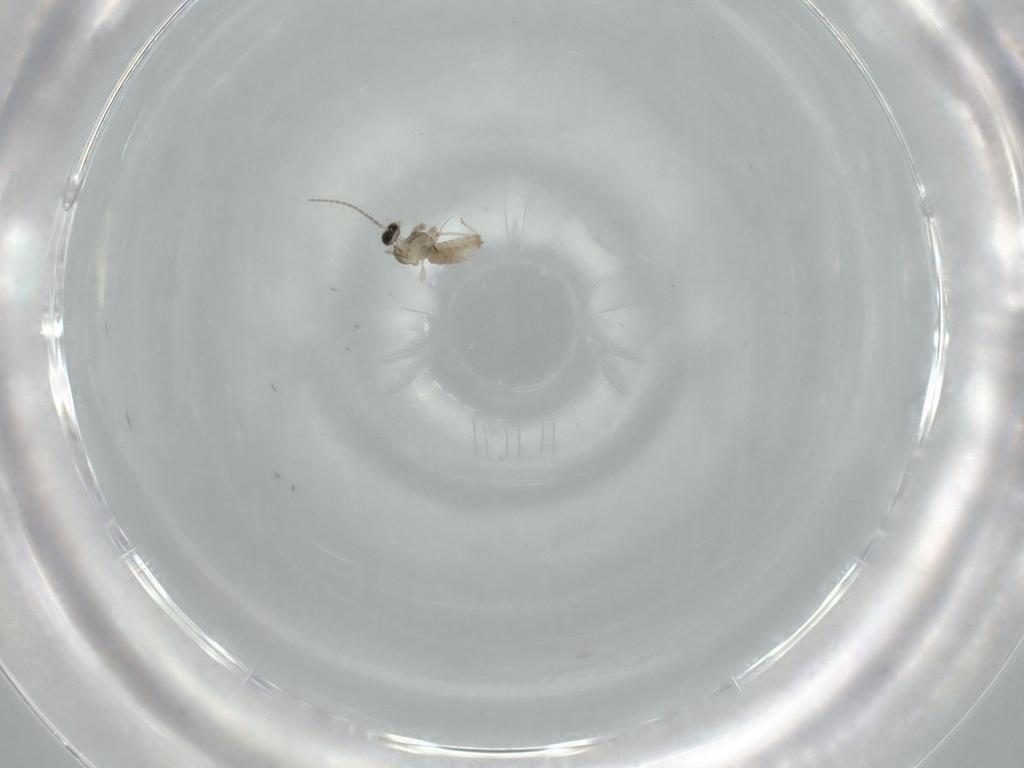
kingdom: Animalia
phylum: Arthropoda
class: Insecta
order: Diptera
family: Cecidomyiidae
